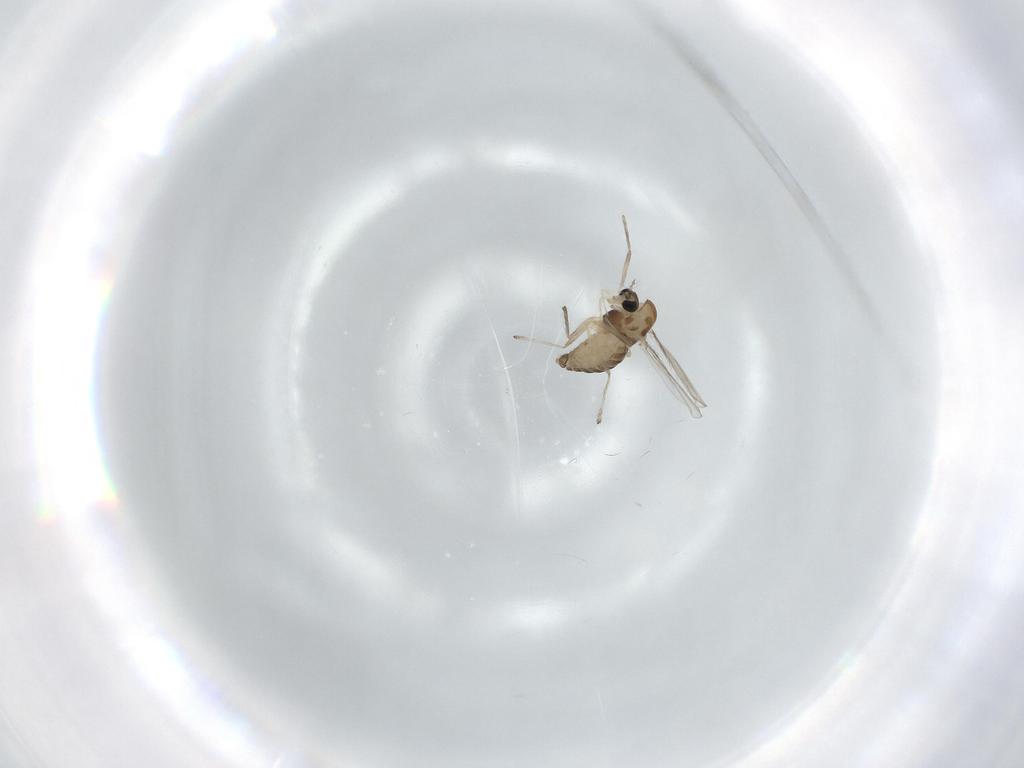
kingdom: Animalia
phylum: Arthropoda
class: Insecta
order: Diptera
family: Chironomidae
